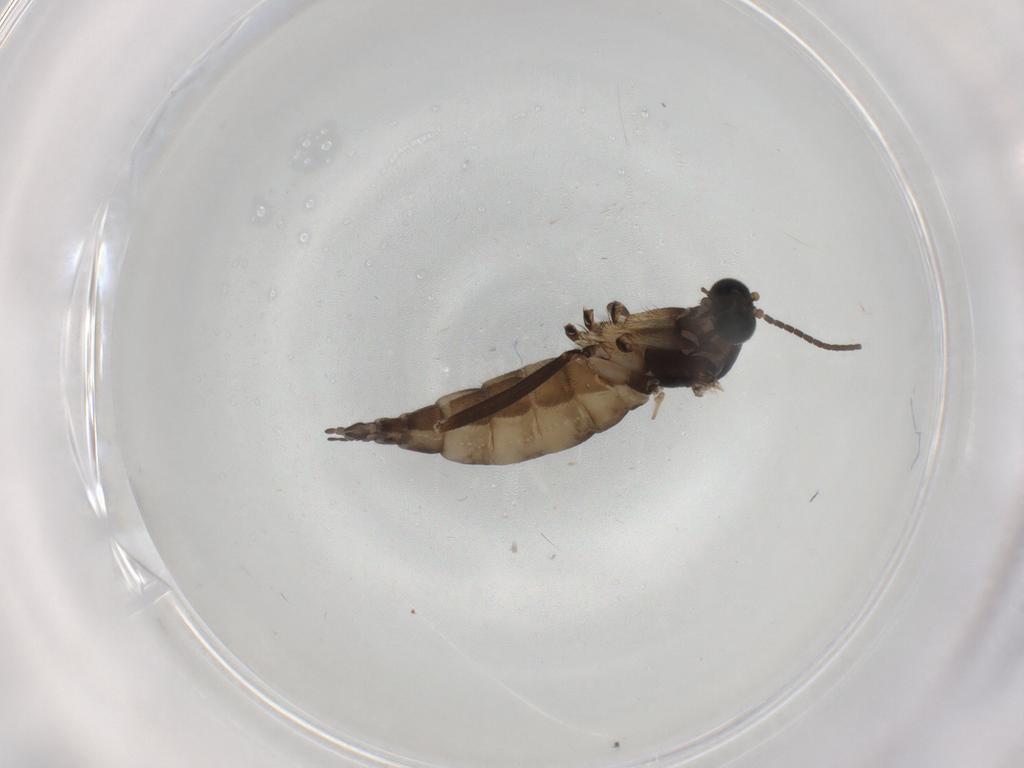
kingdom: Animalia
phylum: Arthropoda
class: Insecta
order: Diptera
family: Sciaridae
